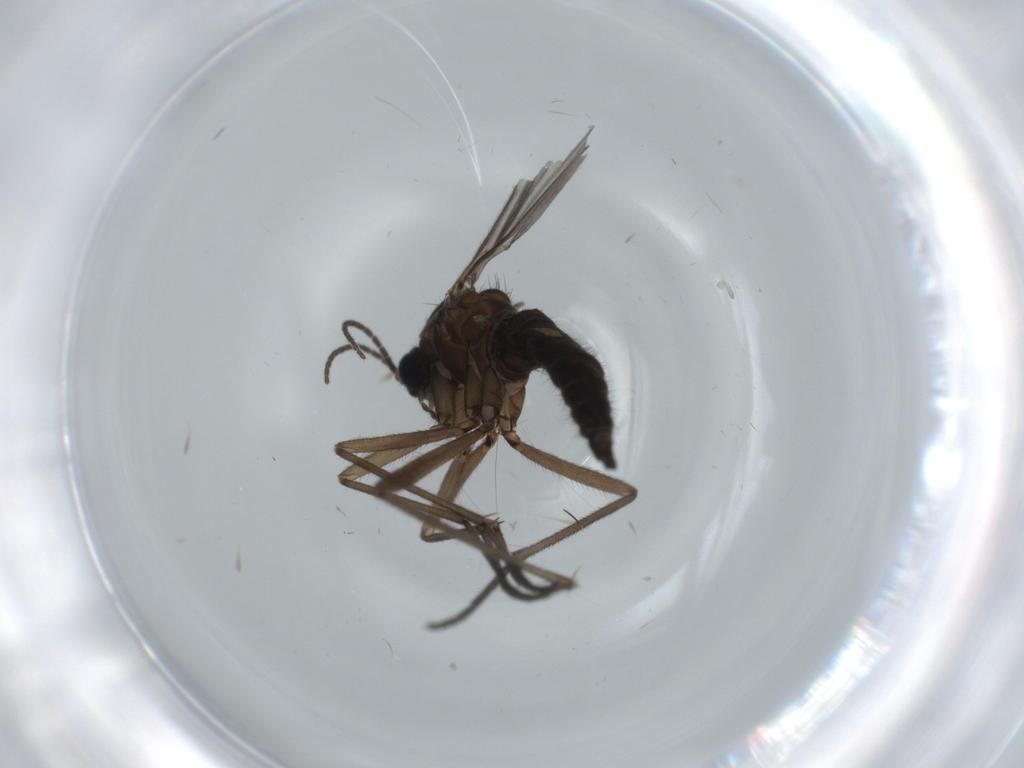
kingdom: Animalia
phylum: Arthropoda
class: Insecta
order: Diptera
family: Sciaridae
